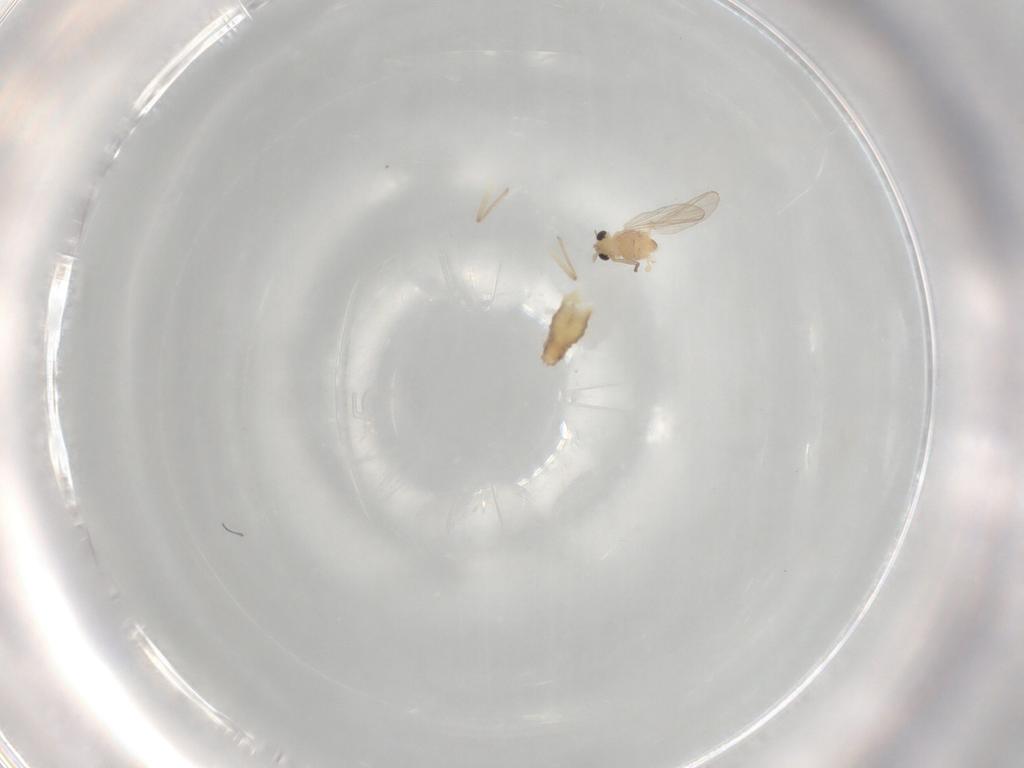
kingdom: Animalia
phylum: Arthropoda
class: Insecta
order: Diptera
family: Chironomidae
